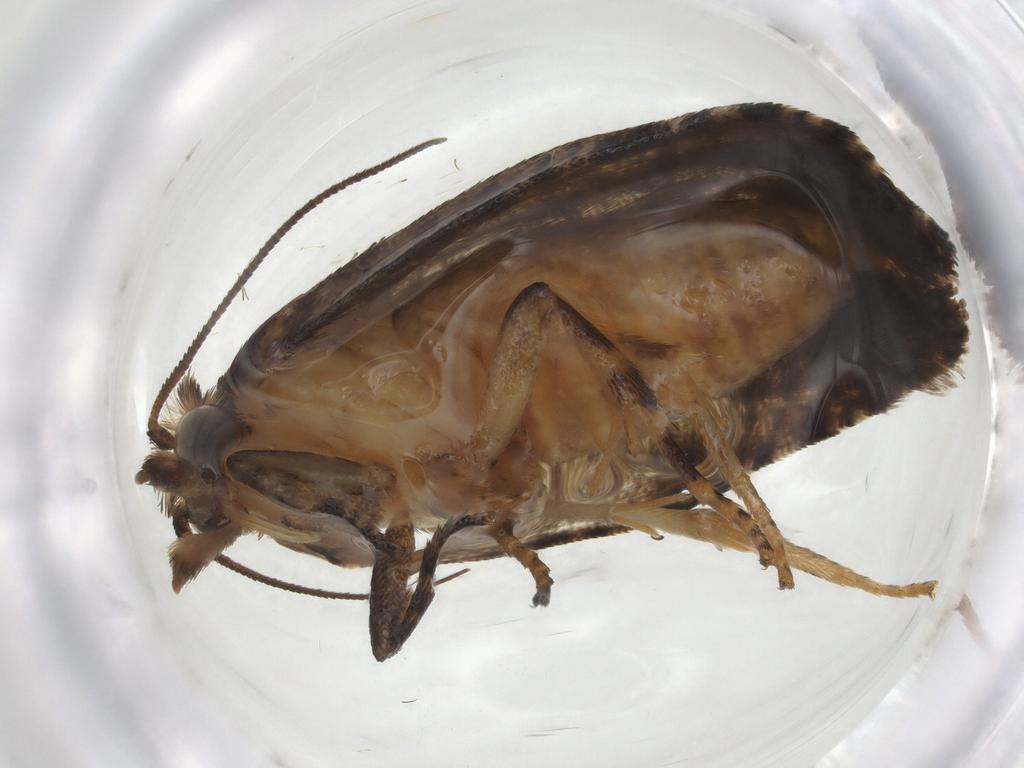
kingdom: Animalia
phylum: Arthropoda
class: Insecta
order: Lepidoptera
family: Tortricidae
